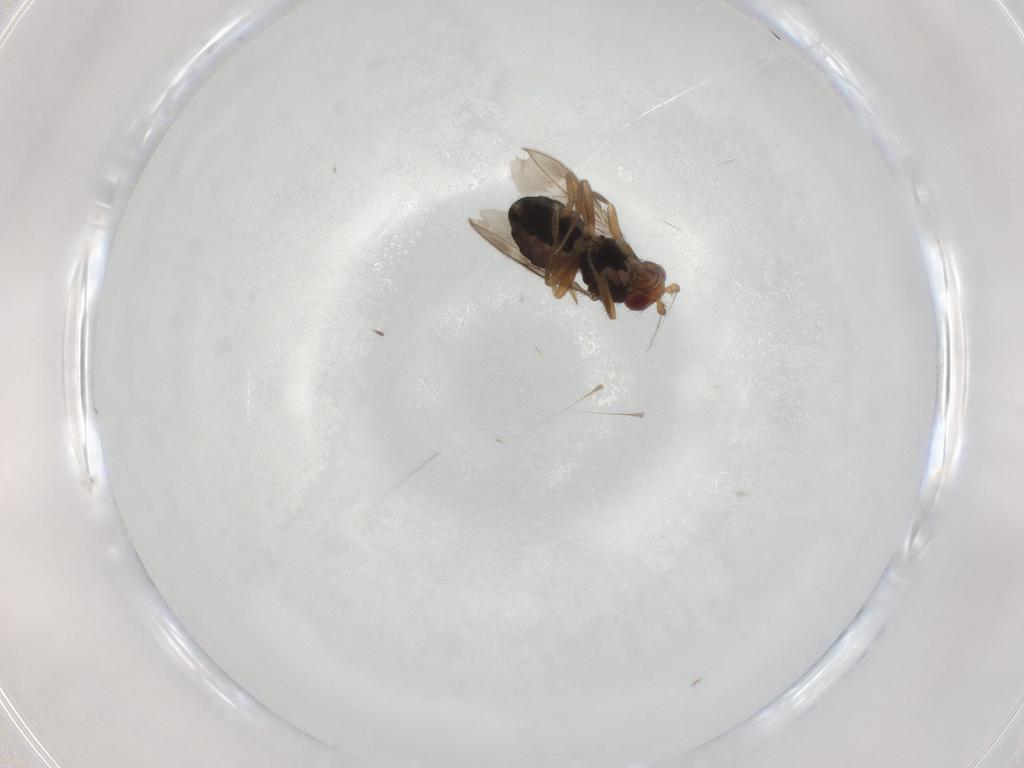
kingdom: Animalia
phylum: Arthropoda
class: Insecta
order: Diptera
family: Sphaeroceridae
